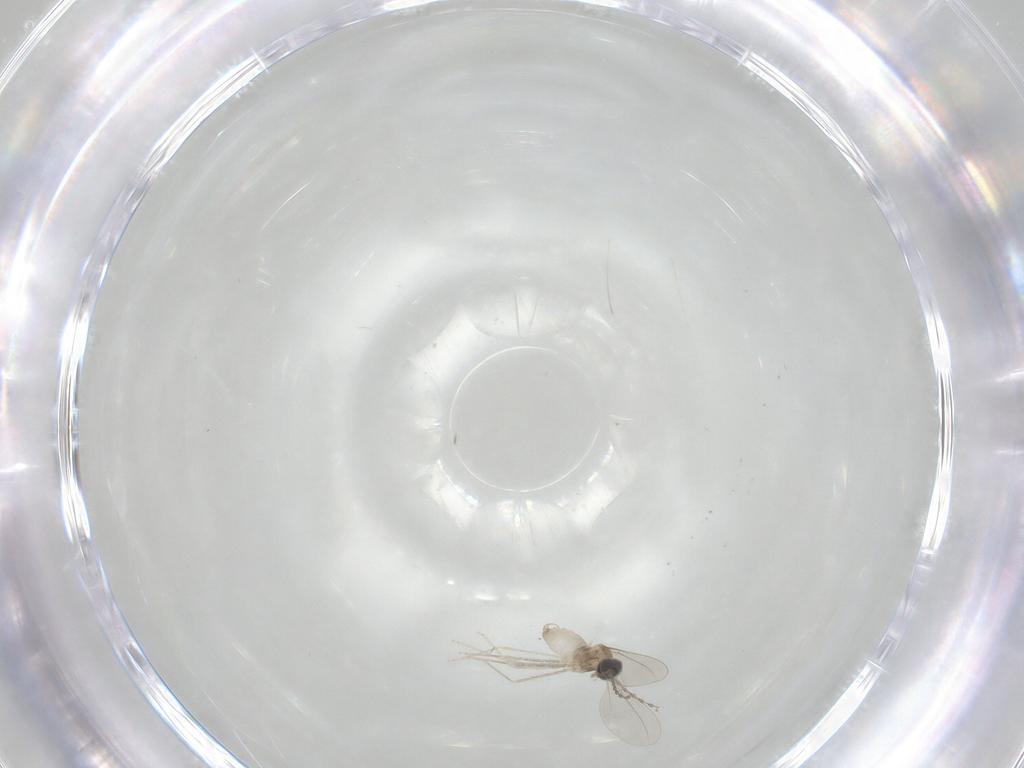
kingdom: Animalia
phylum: Arthropoda
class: Insecta
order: Diptera
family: Cecidomyiidae
